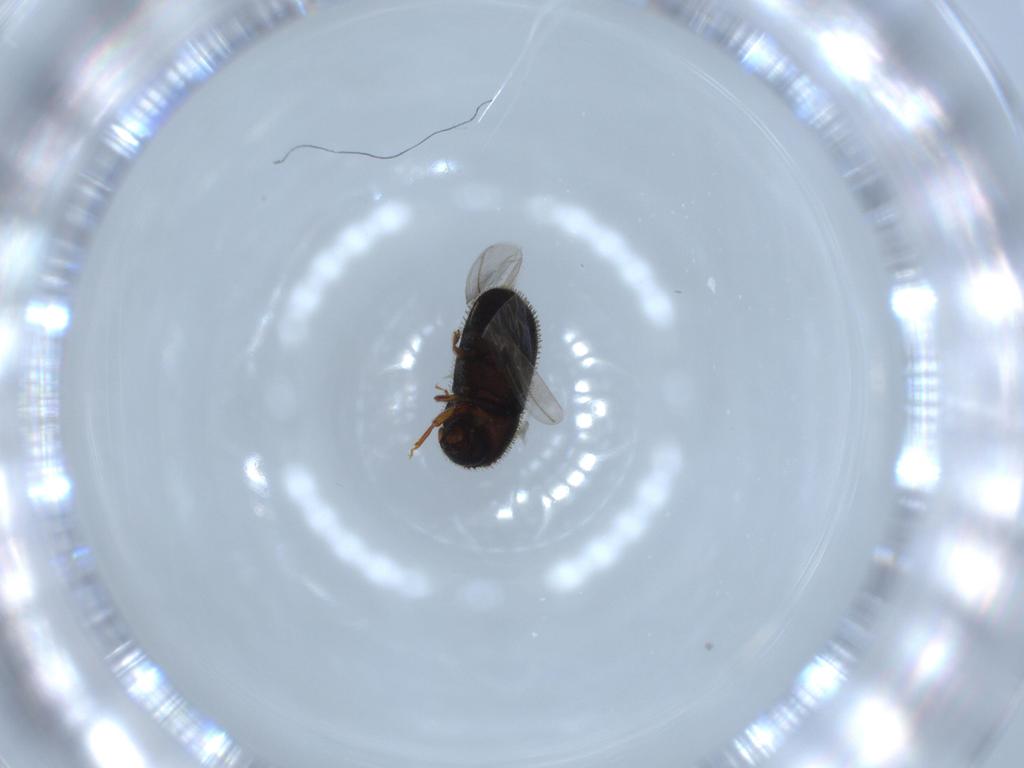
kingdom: Animalia
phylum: Arthropoda
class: Insecta
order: Coleoptera
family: Curculionidae
